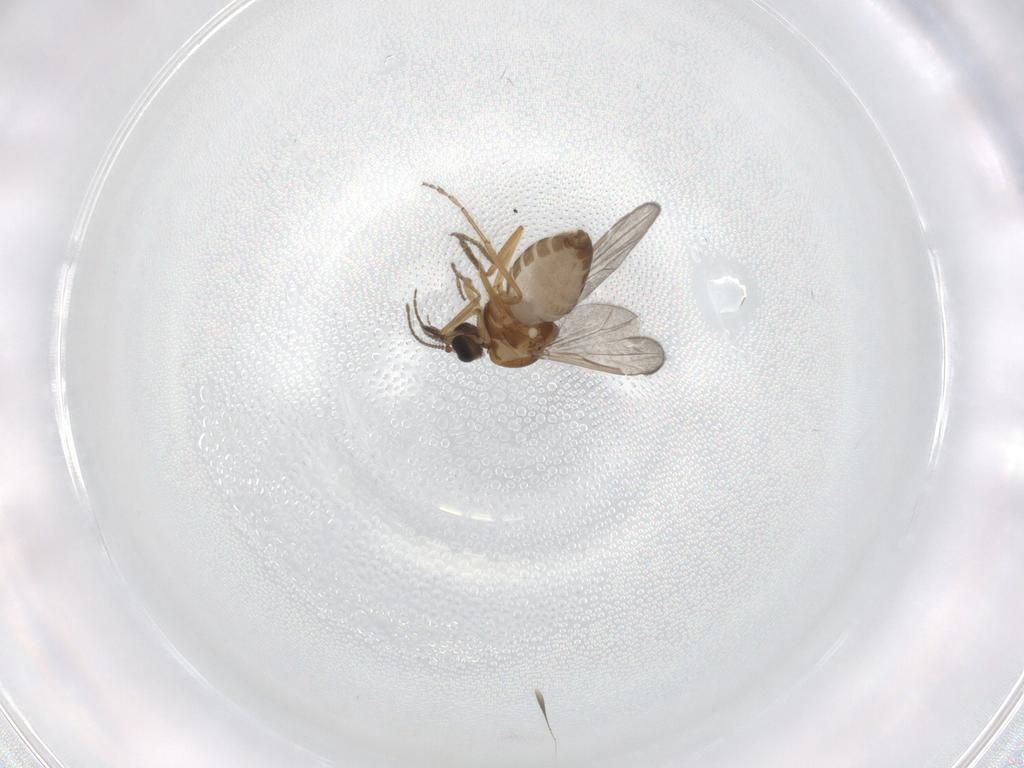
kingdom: Animalia
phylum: Arthropoda
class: Insecta
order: Diptera
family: Ceratopogonidae
